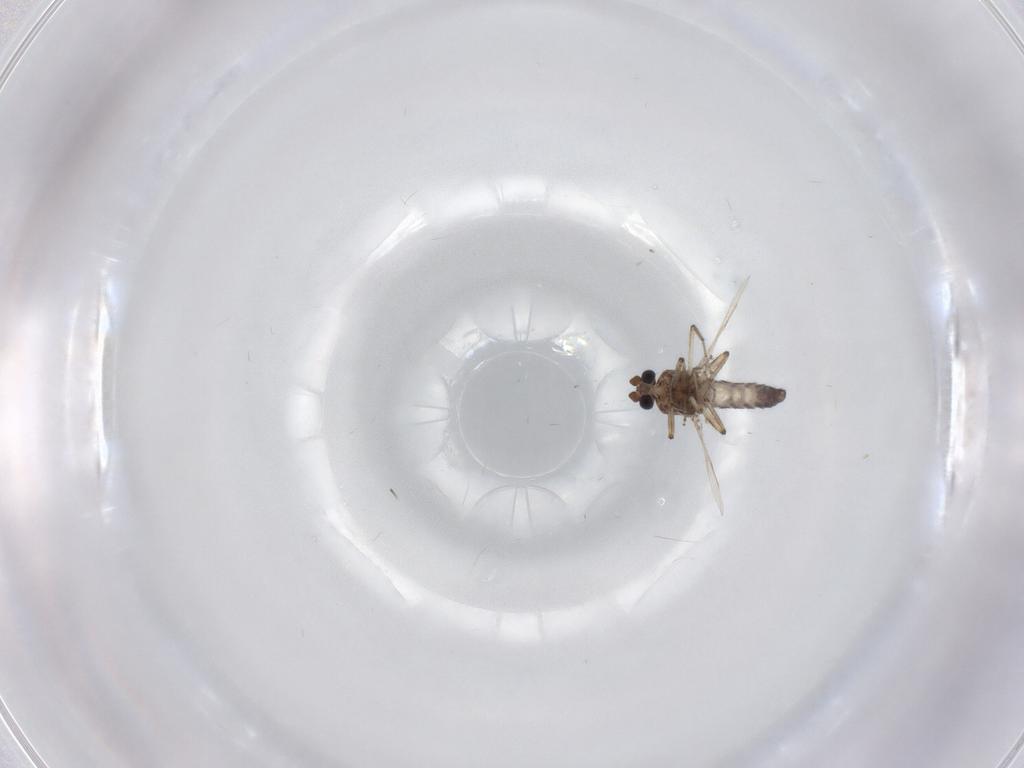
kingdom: Animalia
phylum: Arthropoda
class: Insecta
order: Diptera
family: Ceratopogonidae
